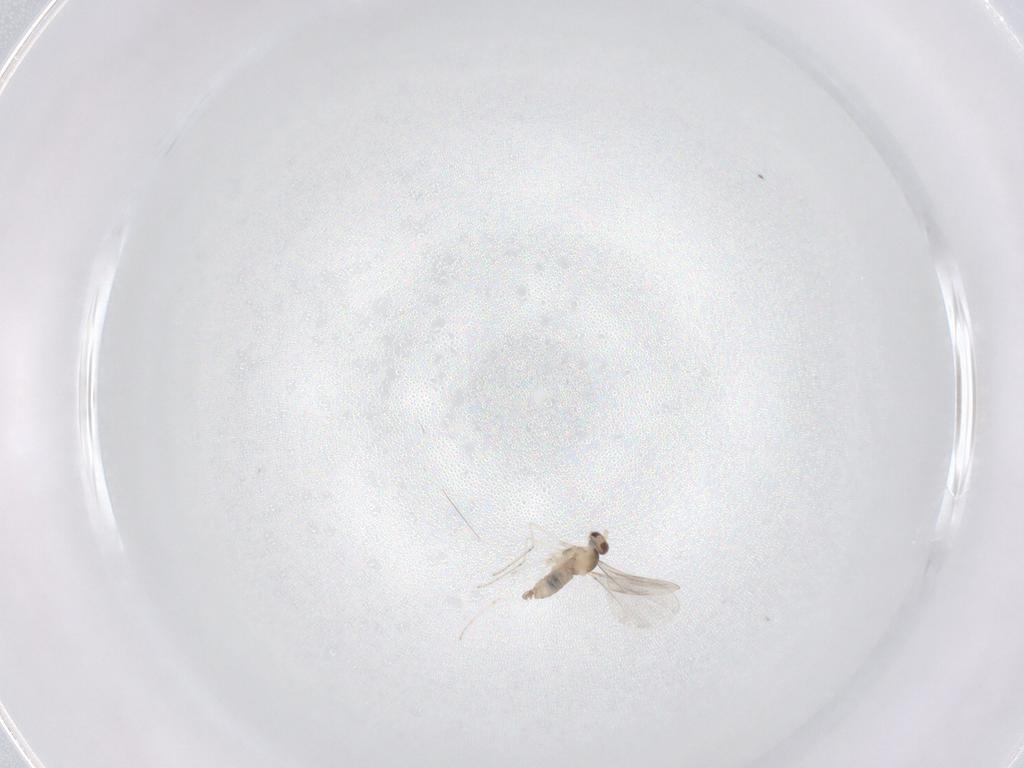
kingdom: Animalia
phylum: Arthropoda
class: Insecta
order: Diptera
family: Cecidomyiidae
